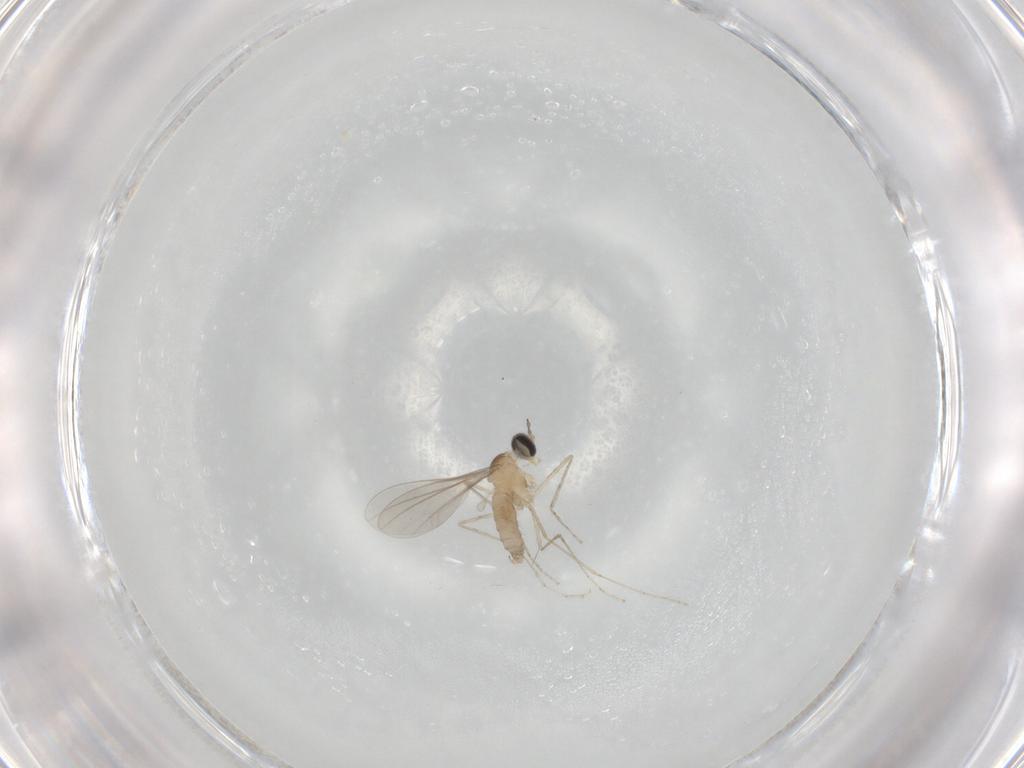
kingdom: Animalia
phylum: Arthropoda
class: Insecta
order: Diptera
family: Cecidomyiidae
